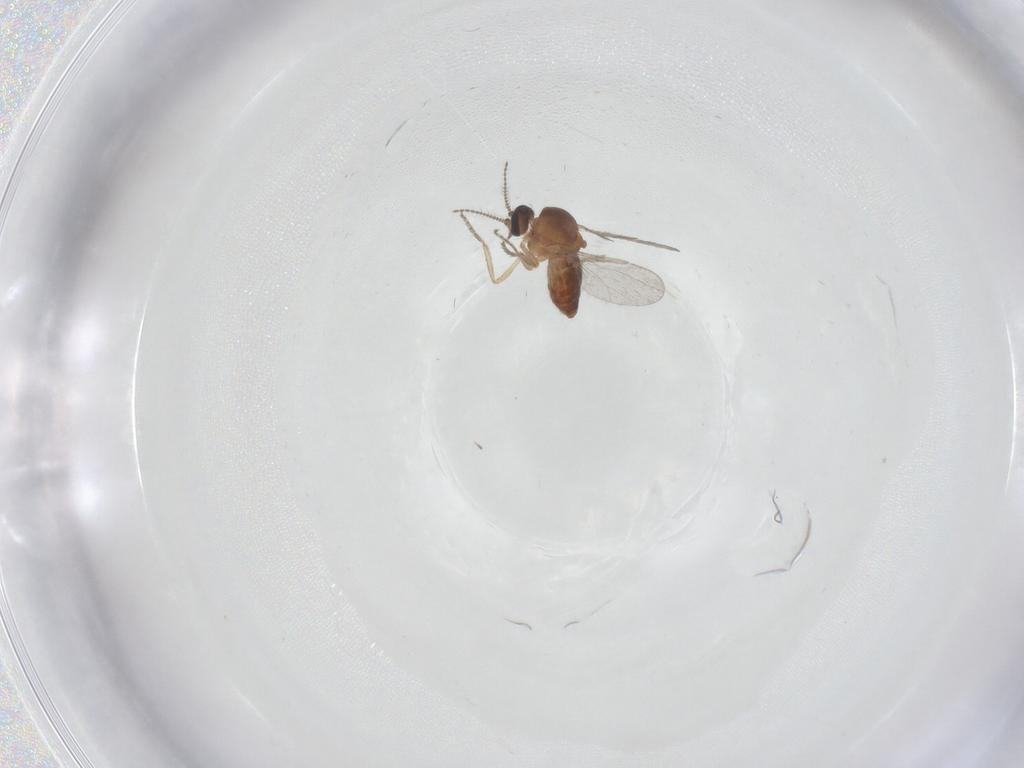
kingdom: Animalia
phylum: Arthropoda
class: Insecta
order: Diptera
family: Ceratopogonidae
